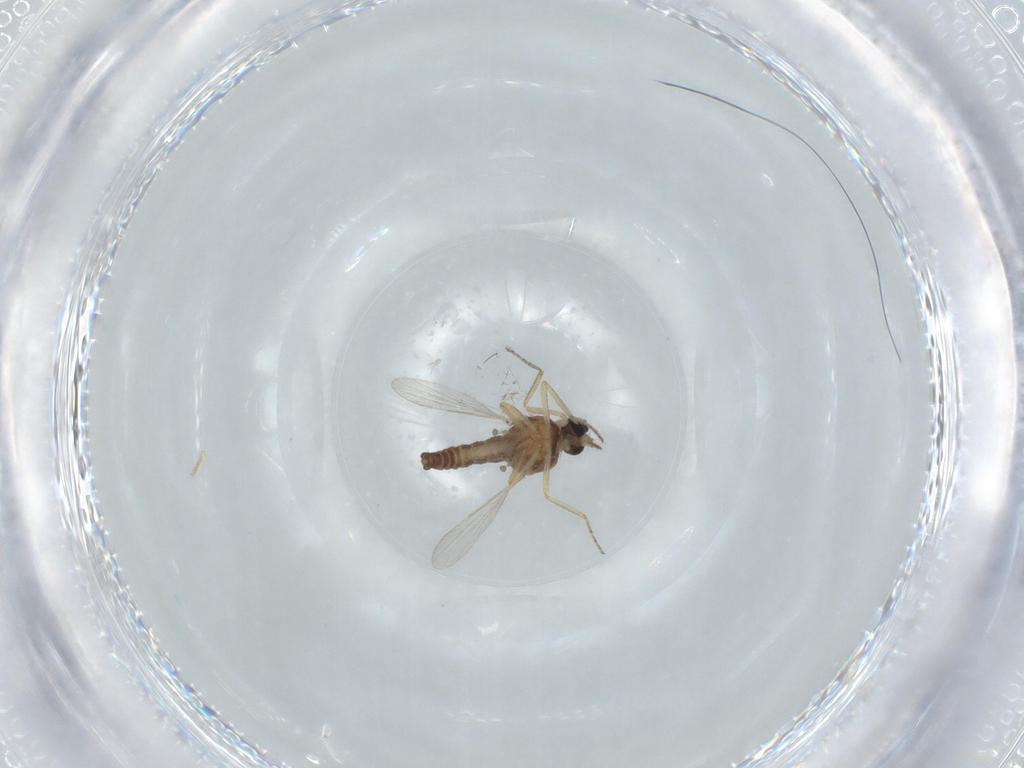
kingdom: Animalia
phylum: Arthropoda
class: Insecta
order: Diptera
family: Ceratopogonidae
